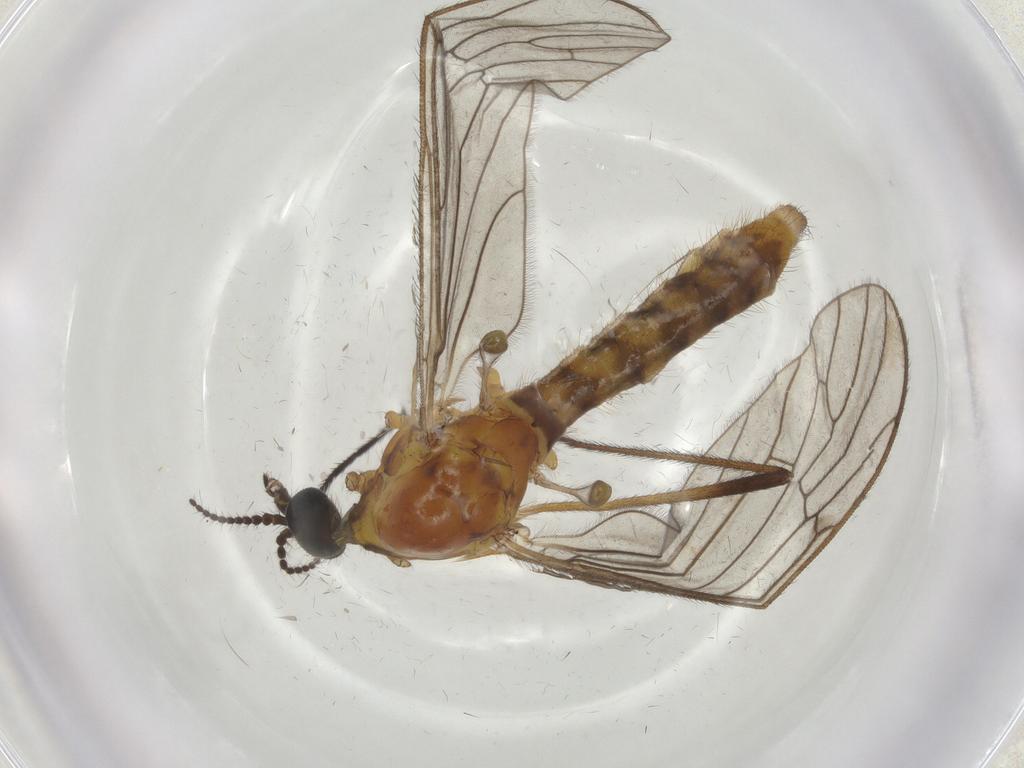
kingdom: Animalia
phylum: Arthropoda
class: Insecta
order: Diptera
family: Limoniidae
